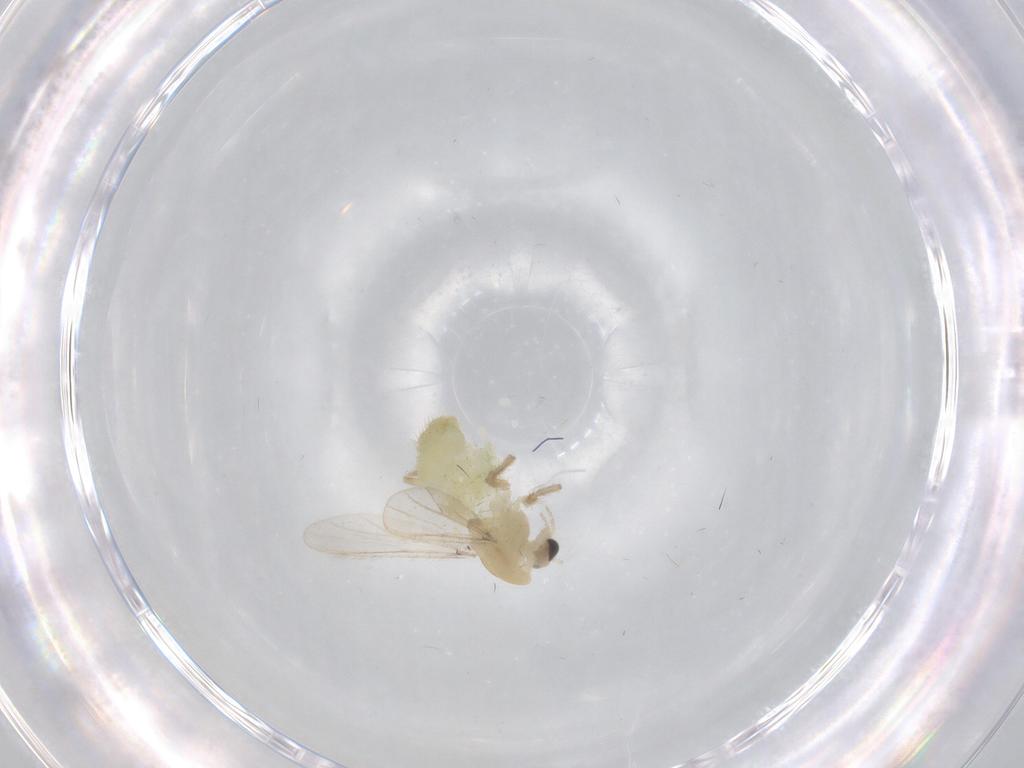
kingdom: Animalia
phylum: Arthropoda
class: Insecta
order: Diptera
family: Chironomidae
